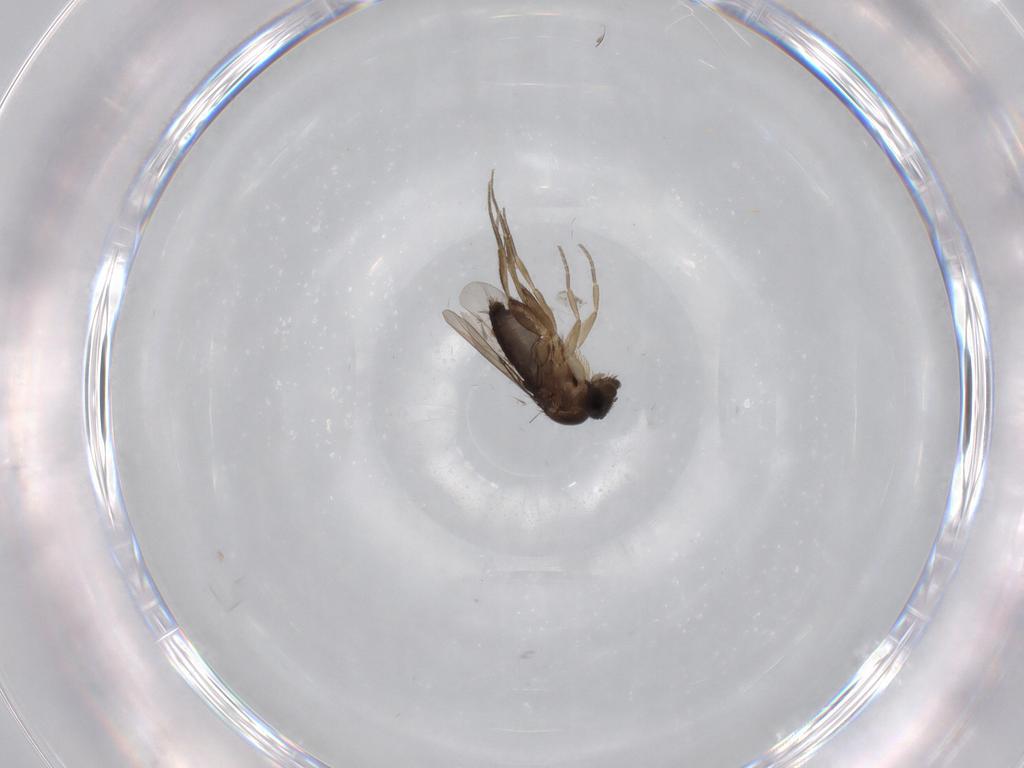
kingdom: Animalia
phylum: Arthropoda
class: Insecta
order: Diptera
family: Phoridae
